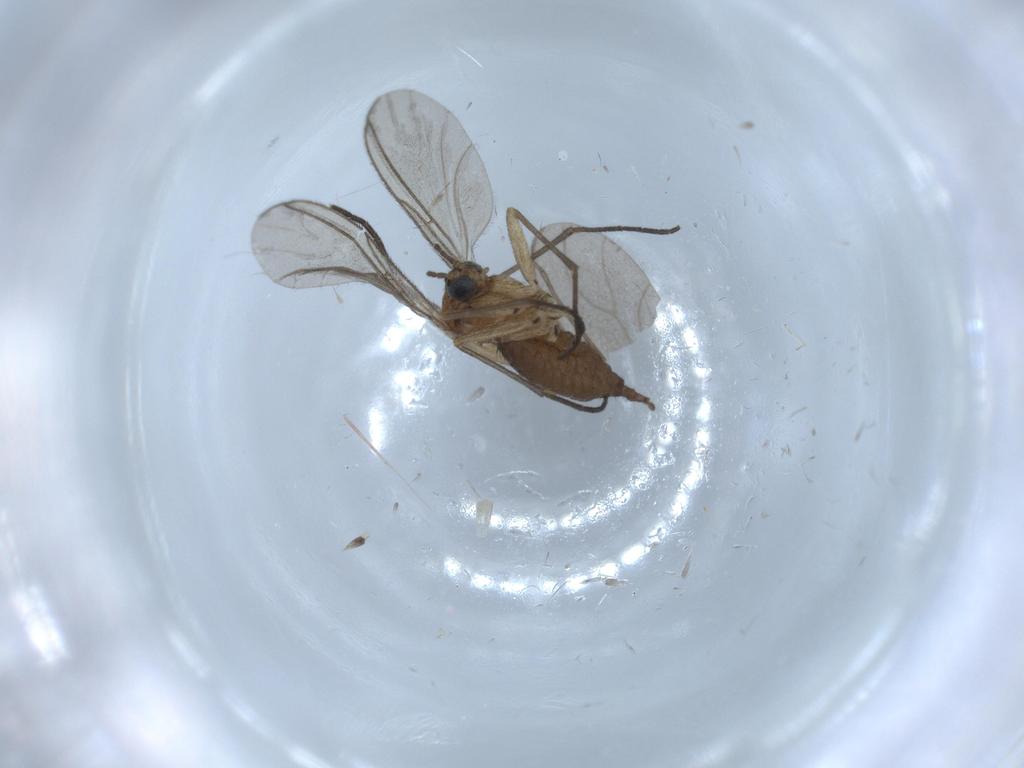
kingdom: Animalia
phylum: Arthropoda
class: Insecta
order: Diptera
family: Sciaridae
